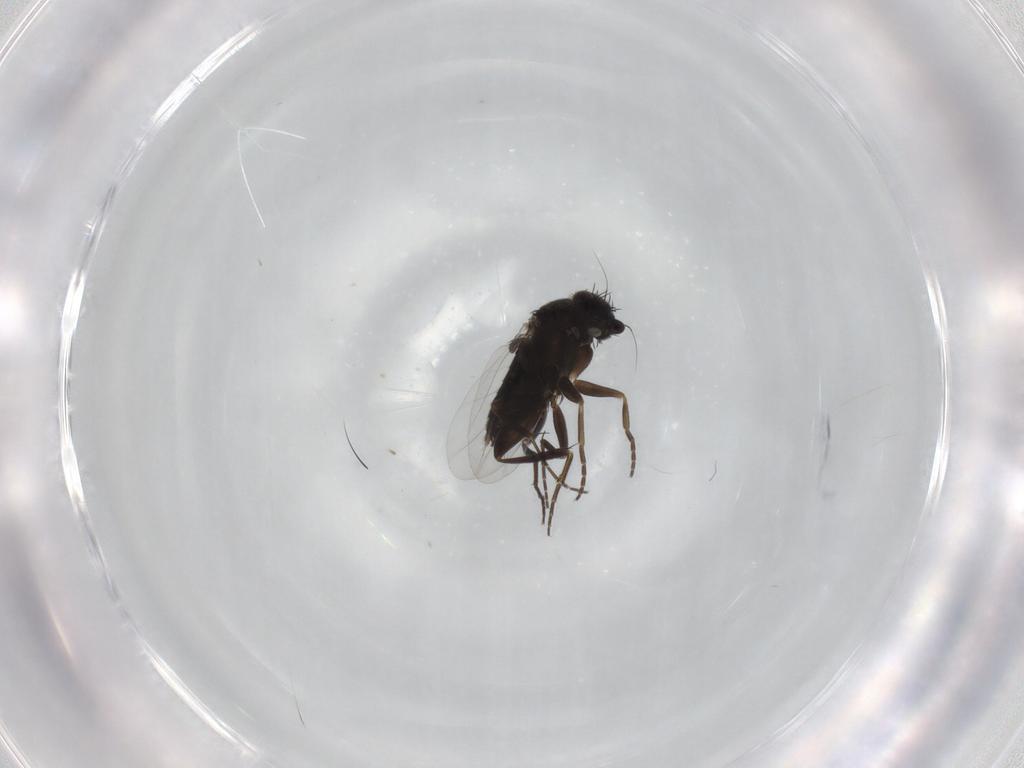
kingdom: Animalia
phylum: Arthropoda
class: Insecta
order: Diptera
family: Phoridae
